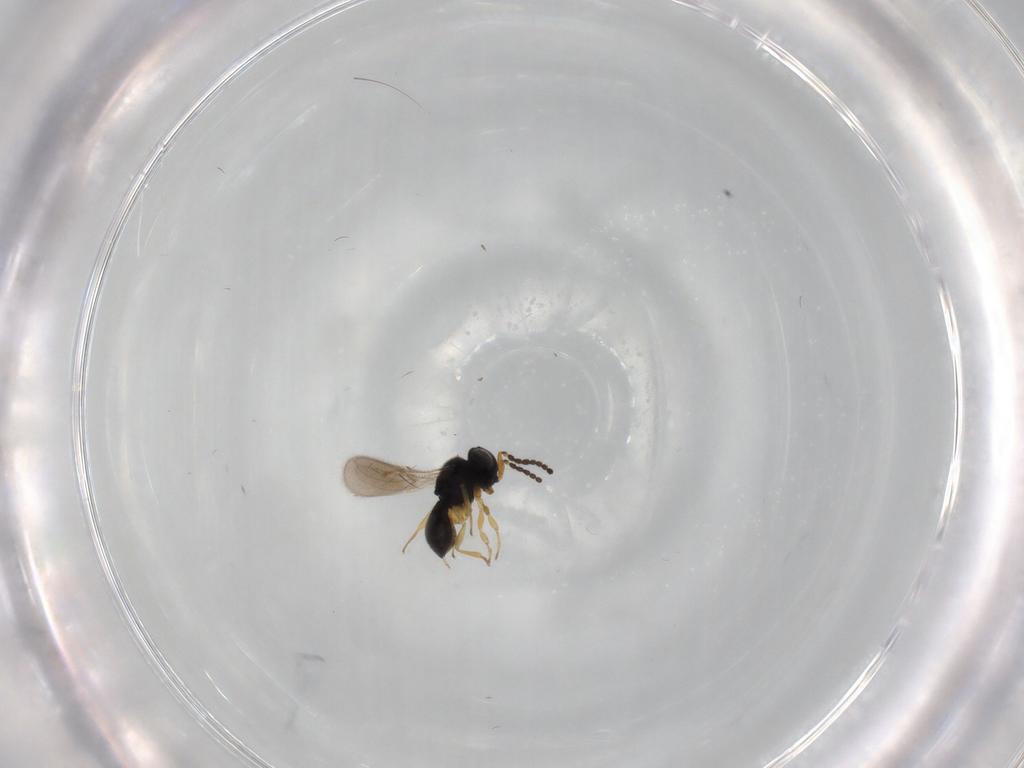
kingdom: Animalia
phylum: Arthropoda
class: Insecta
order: Hymenoptera
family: Scelionidae
